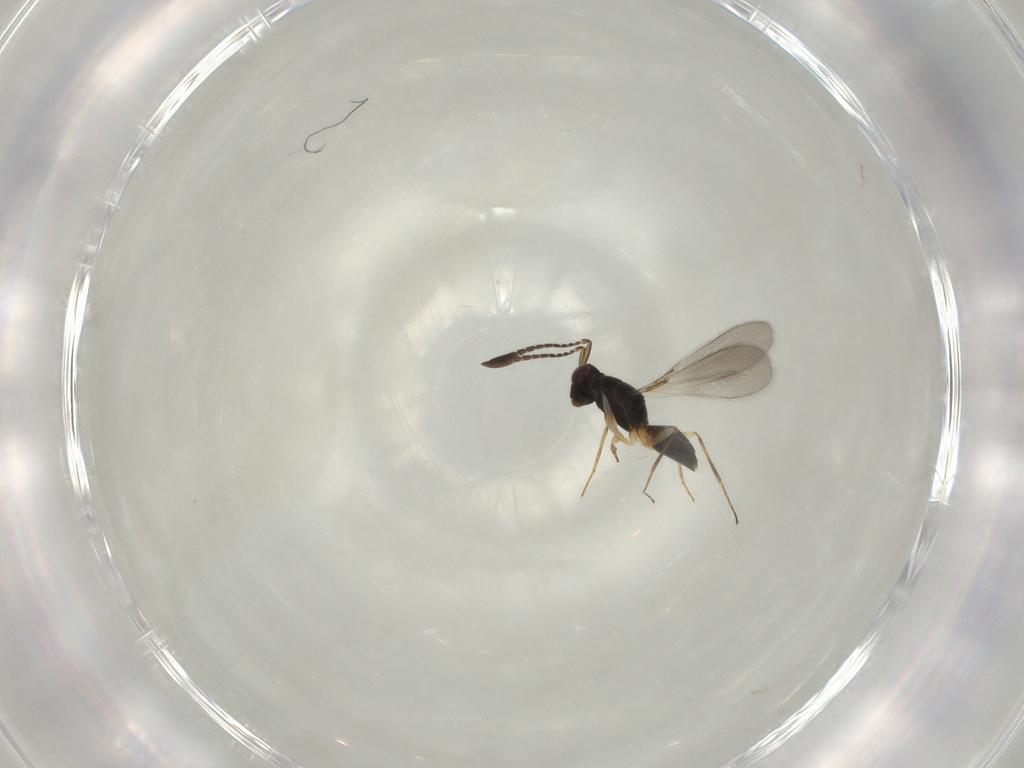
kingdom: Animalia
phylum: Arthropoda
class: Insecta
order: Hymenoptera
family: Mymaridae
